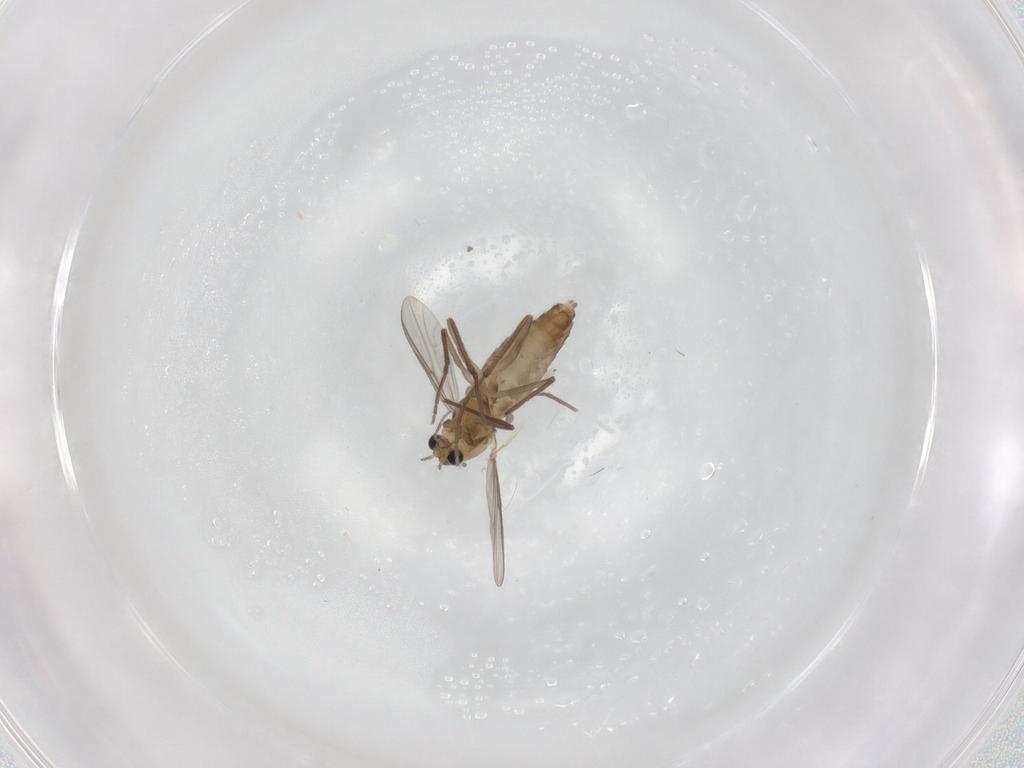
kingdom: Animalia
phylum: Arthropoda
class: Insecta
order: Diptera
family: Chironomidae
